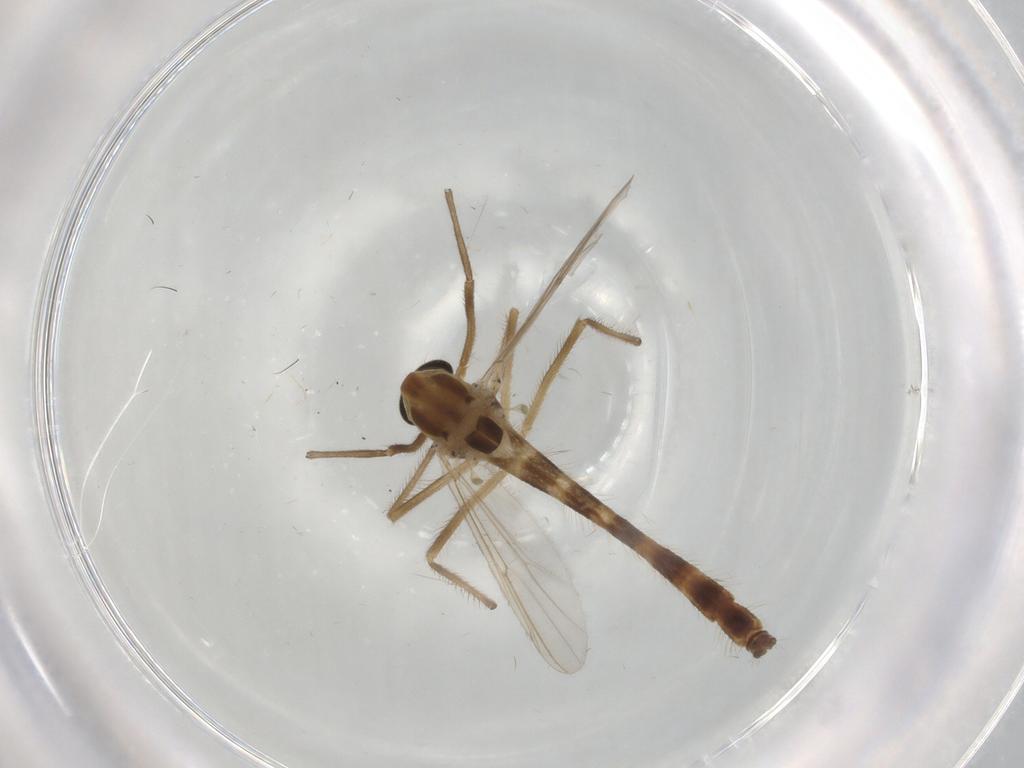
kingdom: Animalia
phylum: Arthropoda
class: Insecta
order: Diptera
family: Chironomidae
